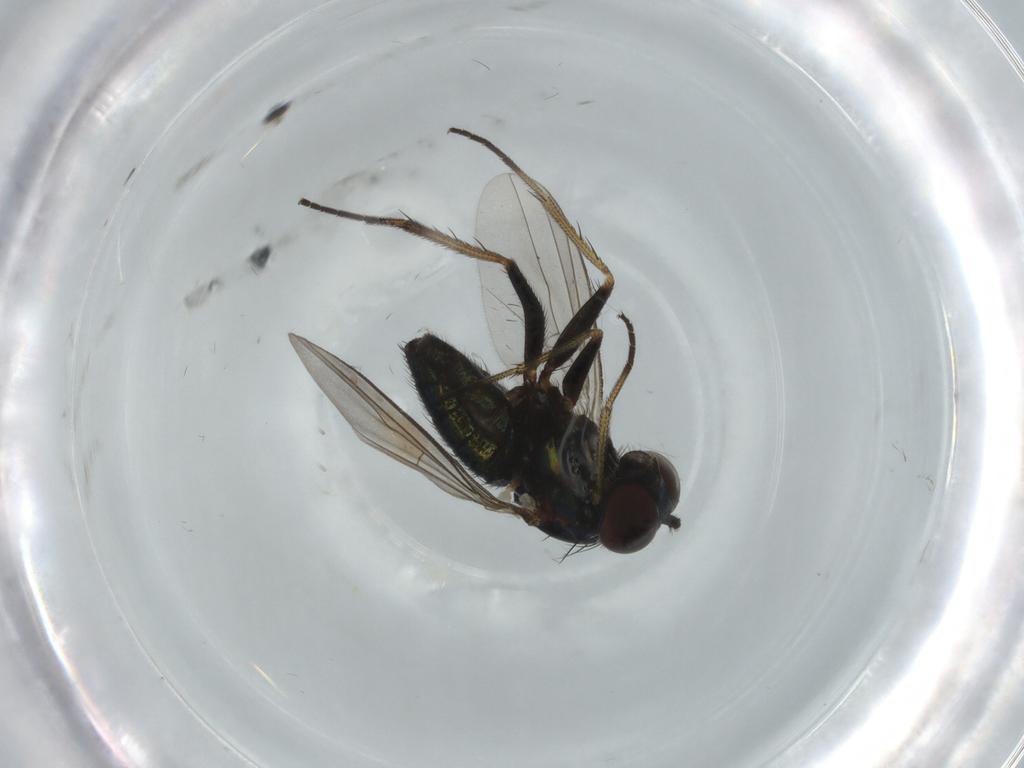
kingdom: Animalia
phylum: Arthropoda
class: Insecta
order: Diptera
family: Dolichopodidae
